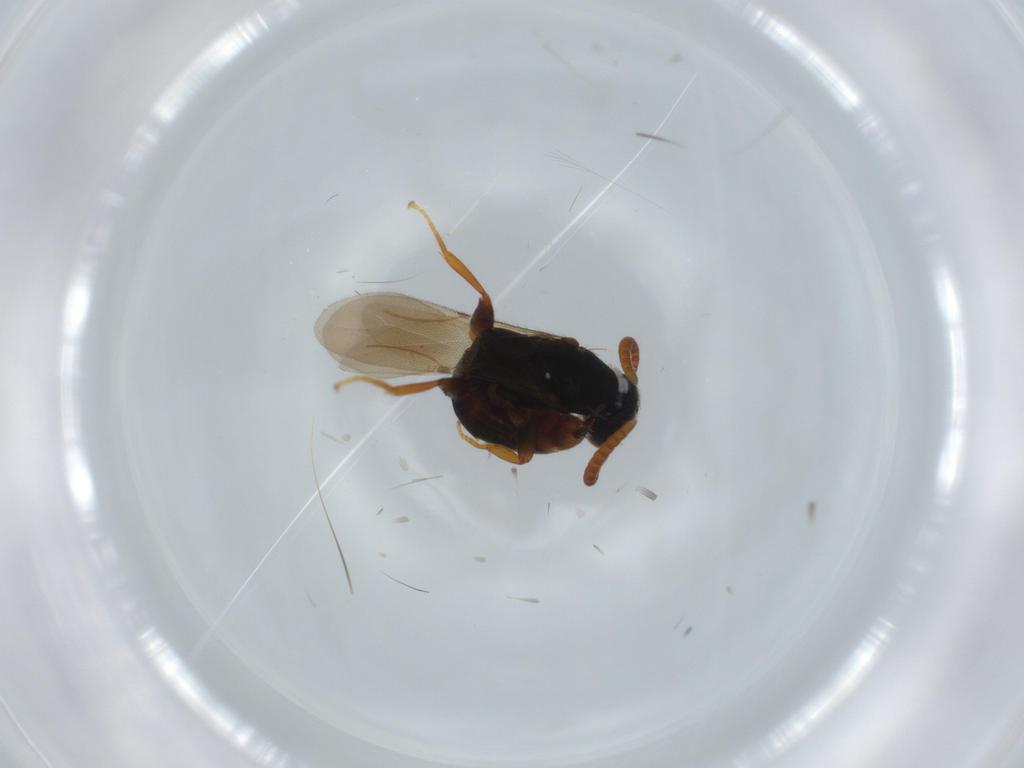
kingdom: Animalia
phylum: Arthropoda
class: Insecta
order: Hymenoptera
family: Bethylidae
